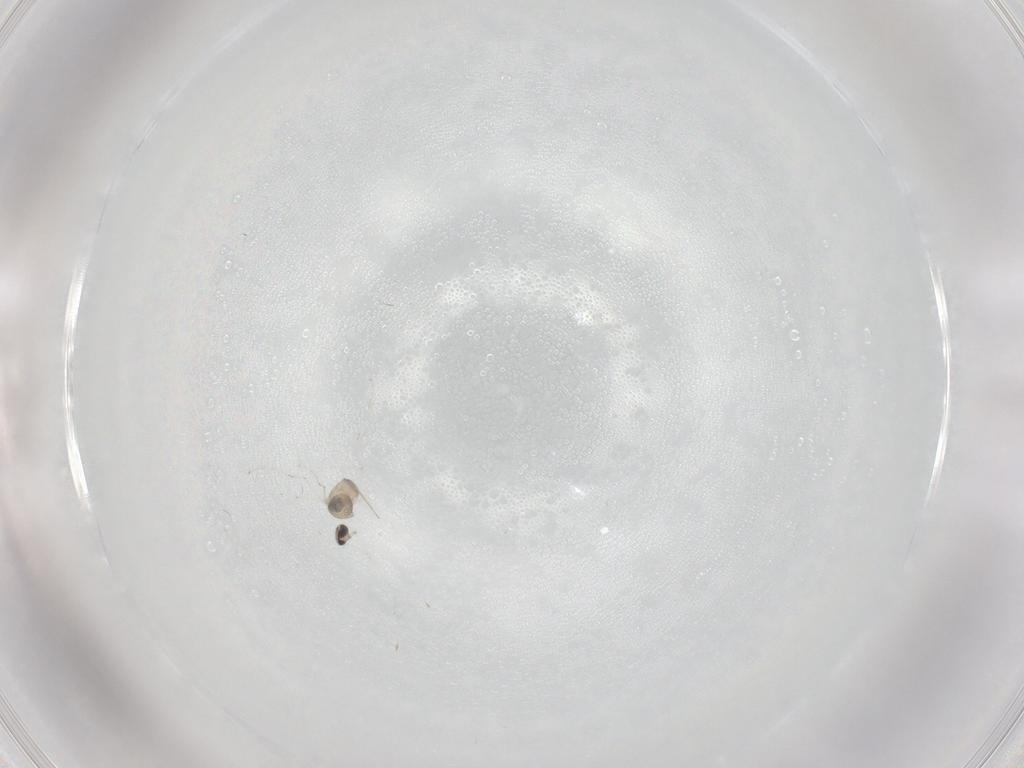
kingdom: Animalia
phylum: Arthropoda
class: Insecta
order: Diptera
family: Cecidomyiidae
